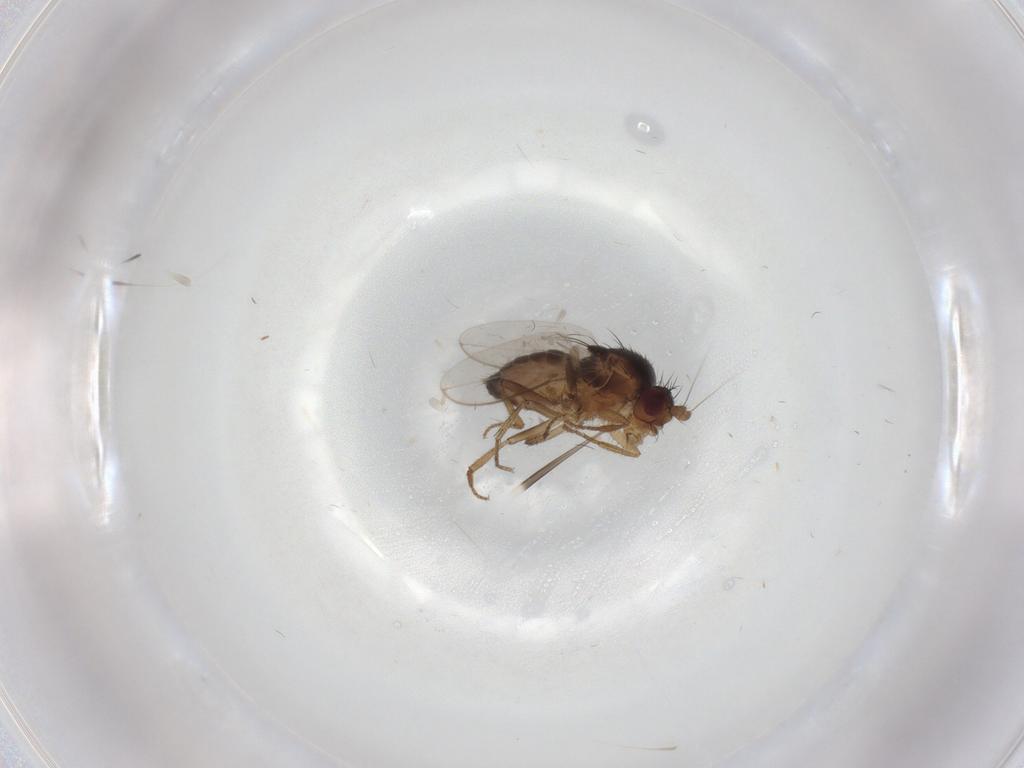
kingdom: Animalia
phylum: Arthropoda
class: Insecta
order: Diptera
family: Sphaeroceridae
